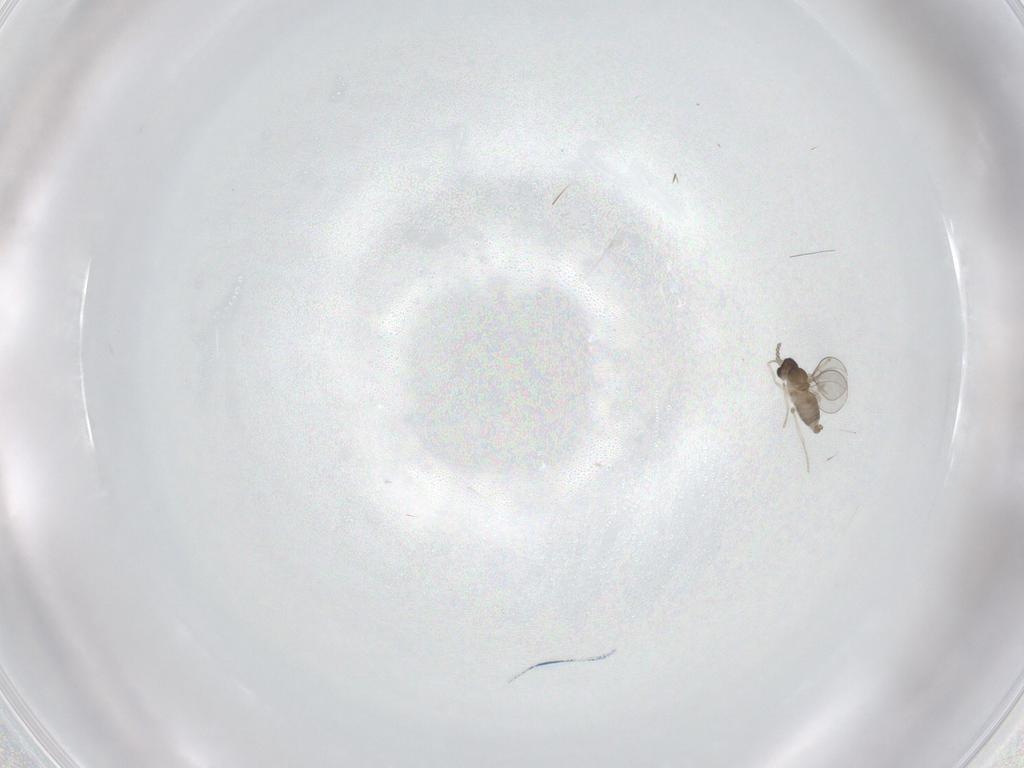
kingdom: Animalia
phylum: Arthropoda
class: Insecta
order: Diptera
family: Cecidomyiidae
